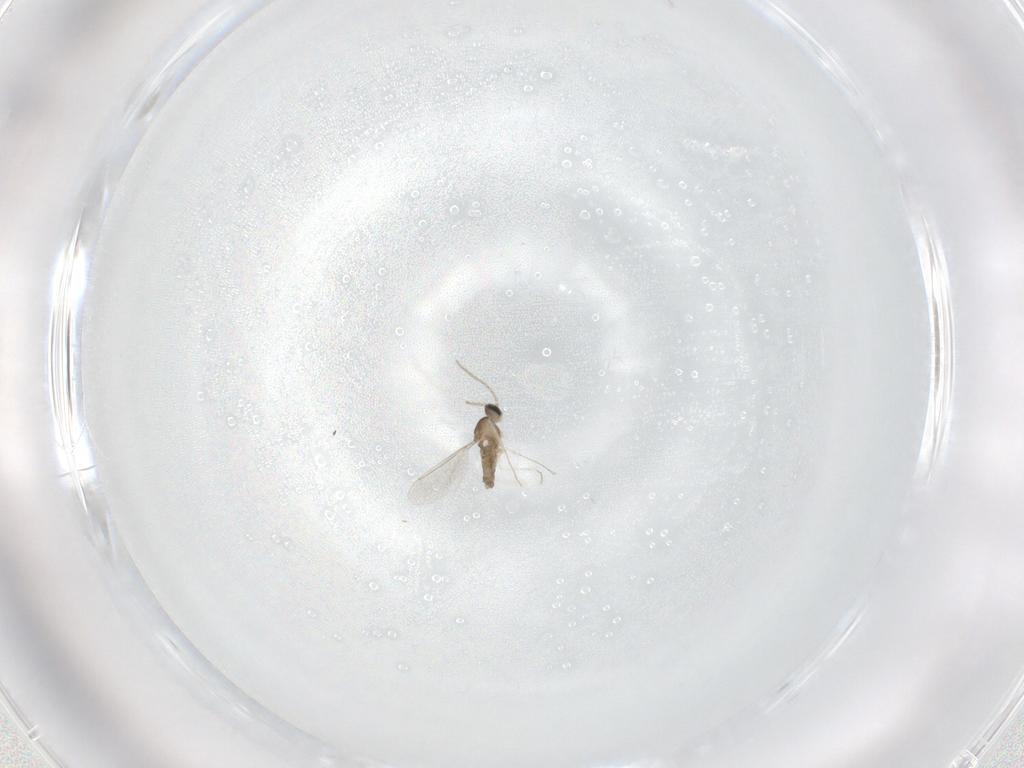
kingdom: Animalia
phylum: Arthropoda
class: Insecta
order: Diptera
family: Cecidomyiidae
